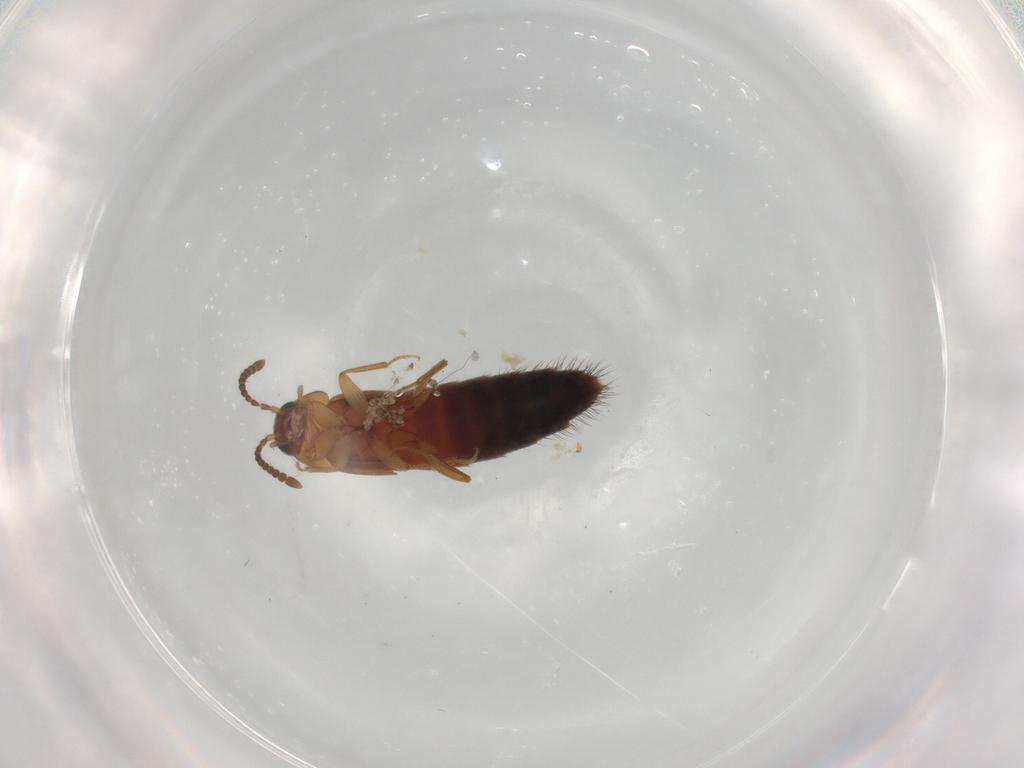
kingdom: Animalia
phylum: Arthropoda
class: Insecta
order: Coleoptera
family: Staphylinidae
